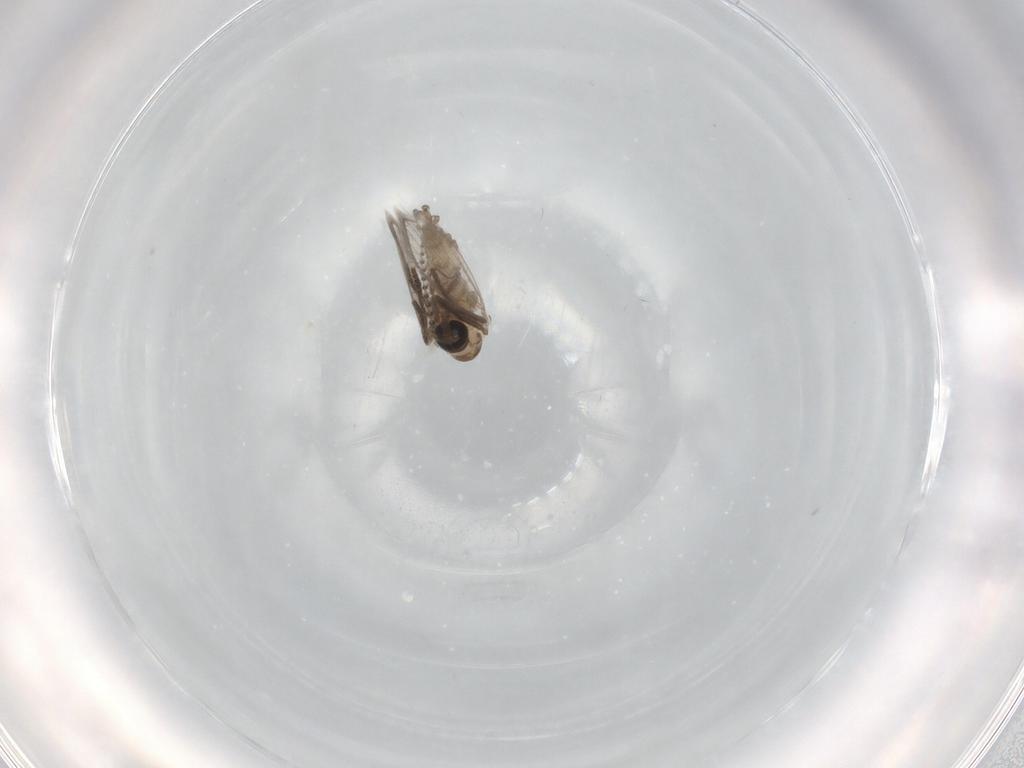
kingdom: Animalia
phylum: Arthropoda
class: Insecta
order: Diptera
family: Psychodidae
